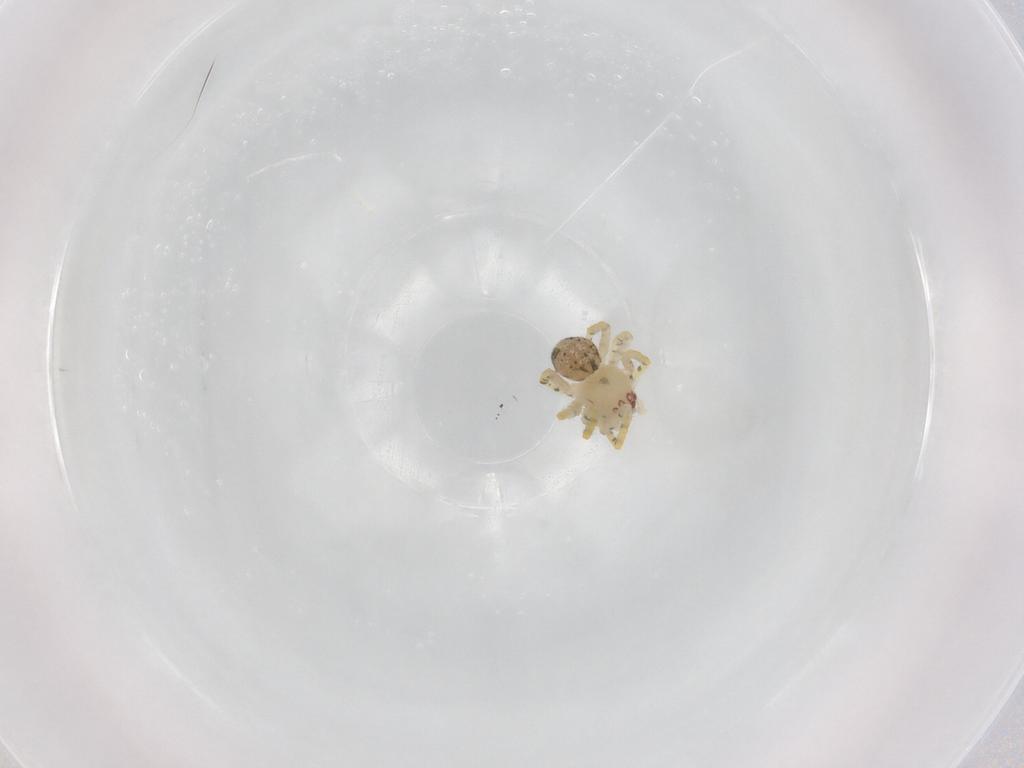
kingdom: Animalia
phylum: Arthropoda
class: Arachnida
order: Araneae
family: Theridiidae
